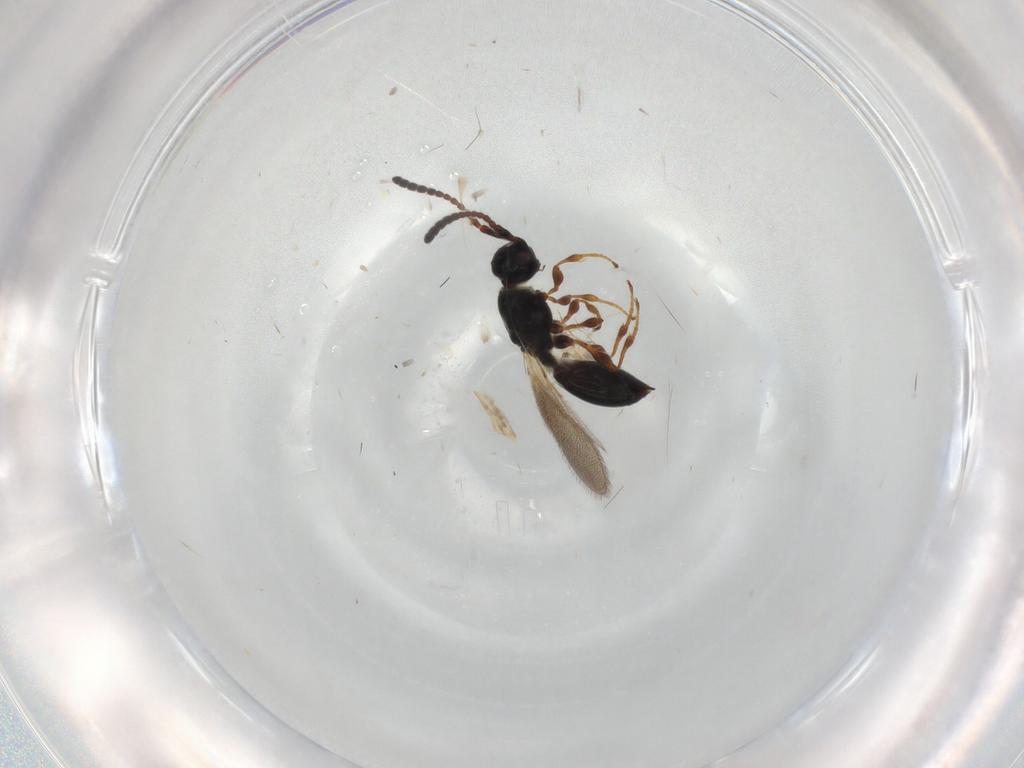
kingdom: Animalia
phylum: Arthropoda
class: Insecta
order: Hymenoptera
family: Diapriidae
